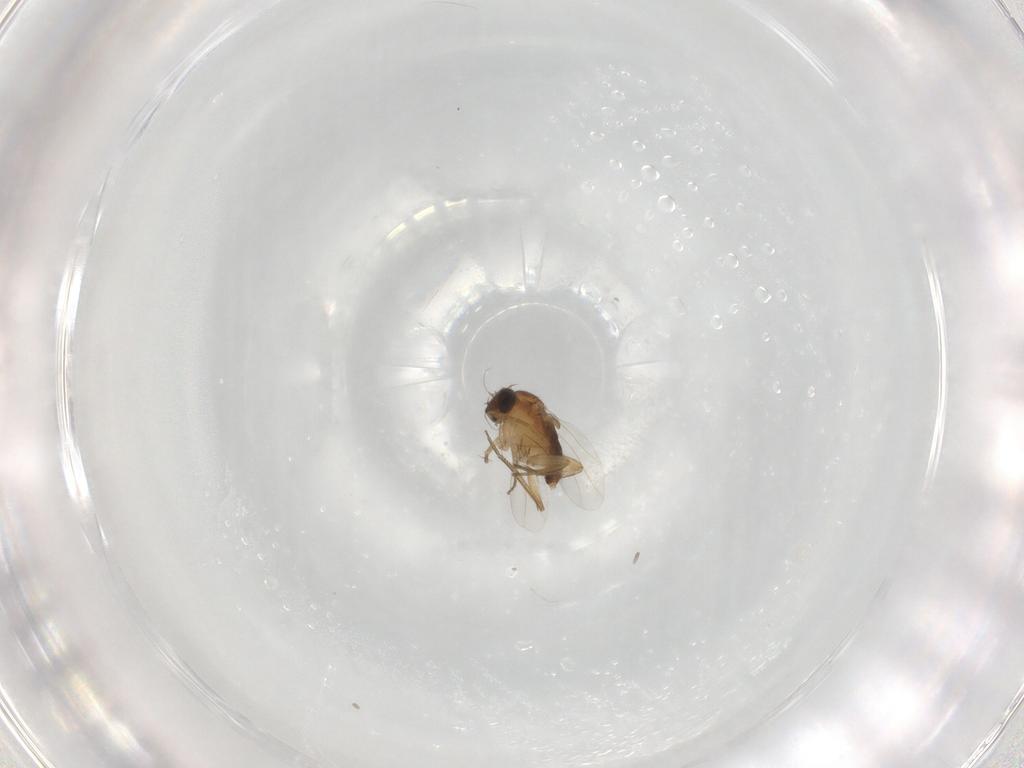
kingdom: Animalia
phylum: Arthropoda
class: Insecta
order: Diptera
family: Phoridae
